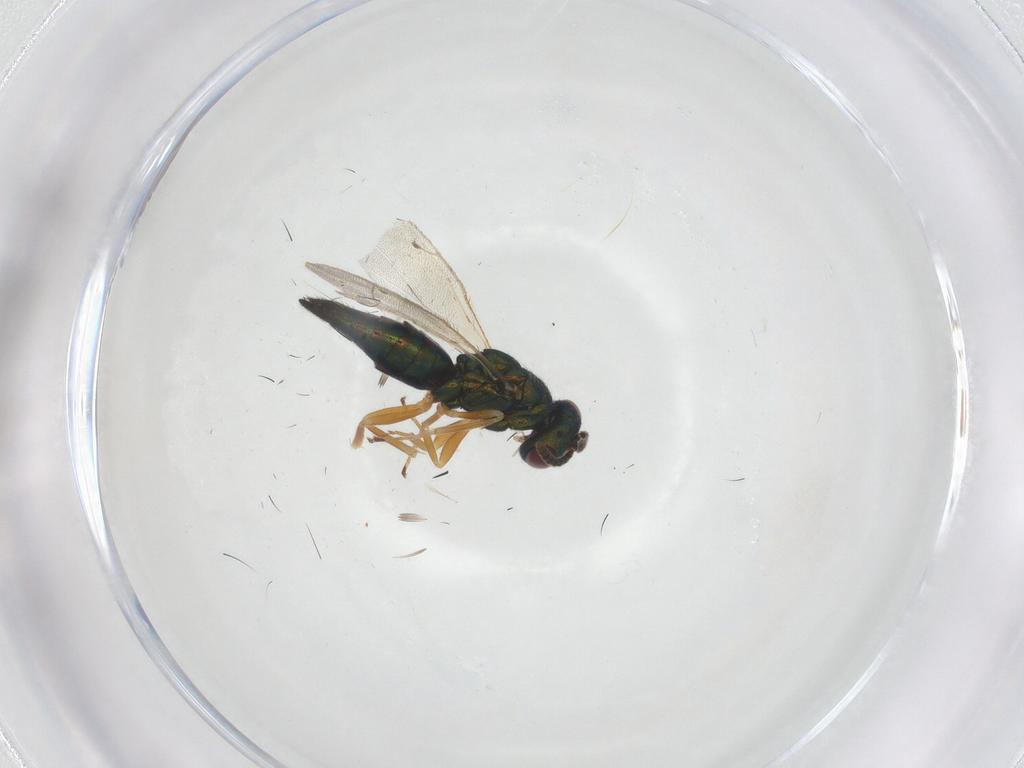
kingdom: Animalia
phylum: Arthropoda
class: Insecta
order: Hymenoptera
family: Pteromalidae
